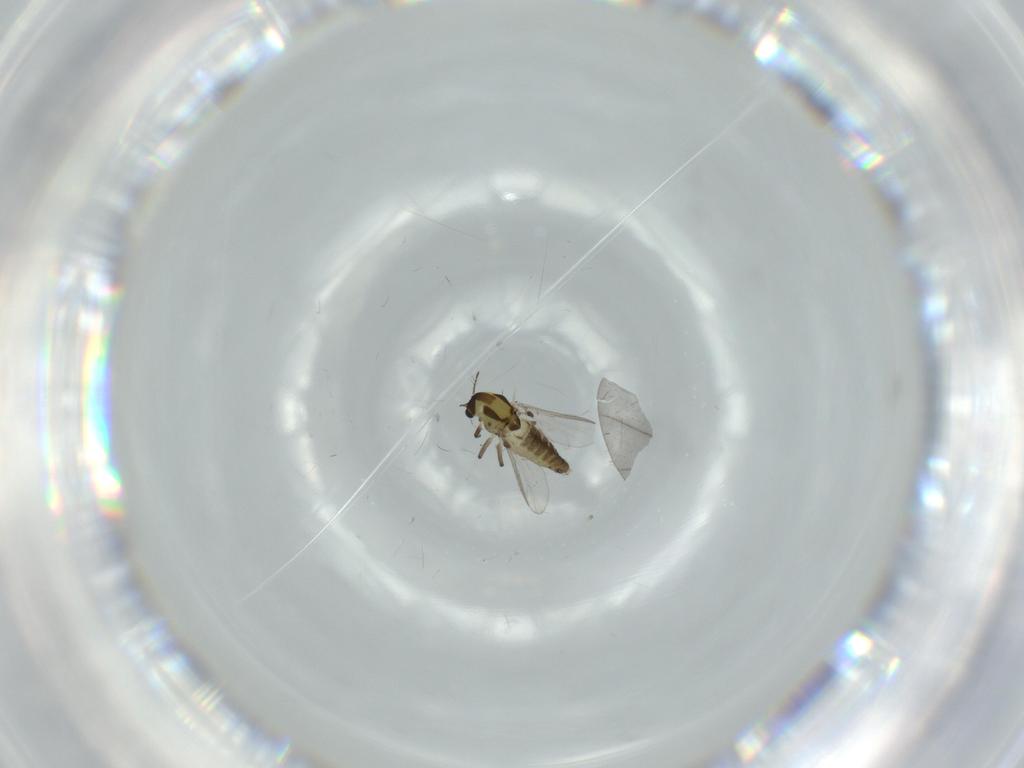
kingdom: Animalia
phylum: Arthropoda
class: Insecta
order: Diptera
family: Chironomidae
